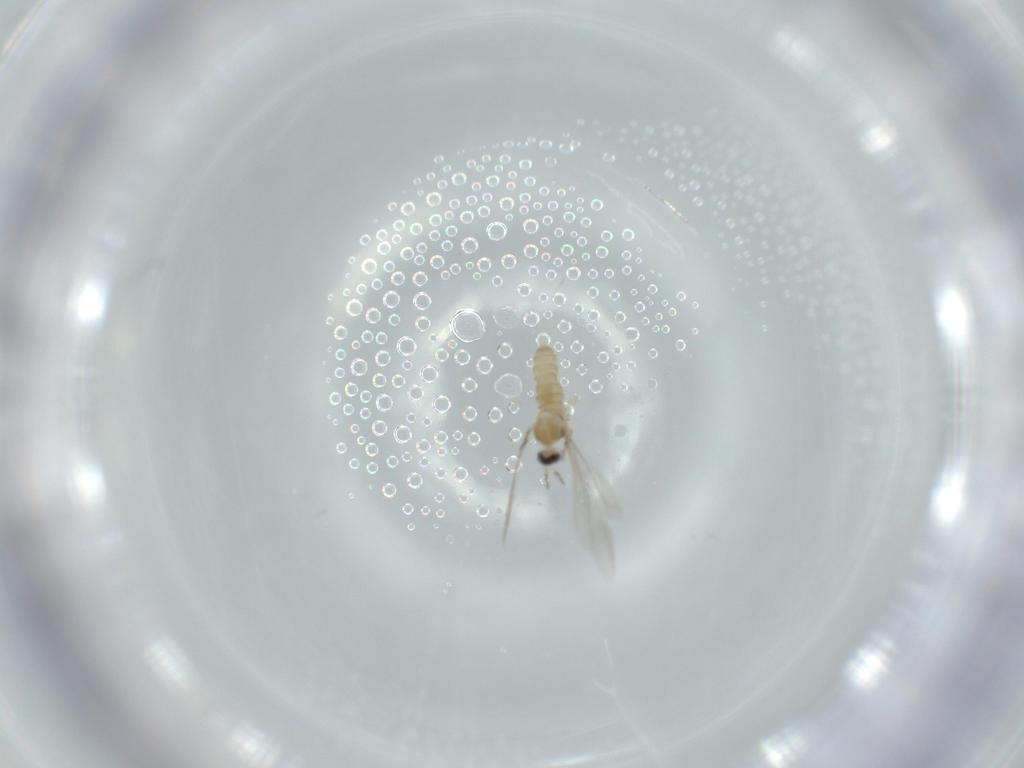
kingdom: Animalia
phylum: Arthropoda
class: Insecta
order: Diptera
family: Cecidomyiidae
